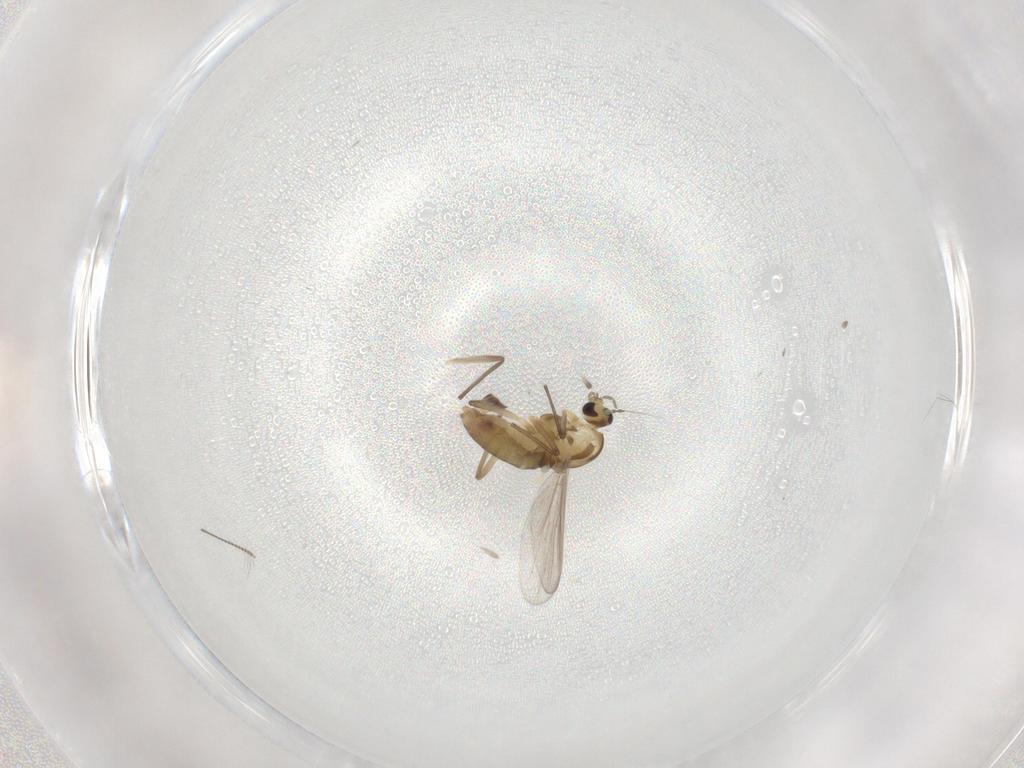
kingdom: Animalia
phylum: Arthropoda
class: Insecta
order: Diptera
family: Chironomidae
